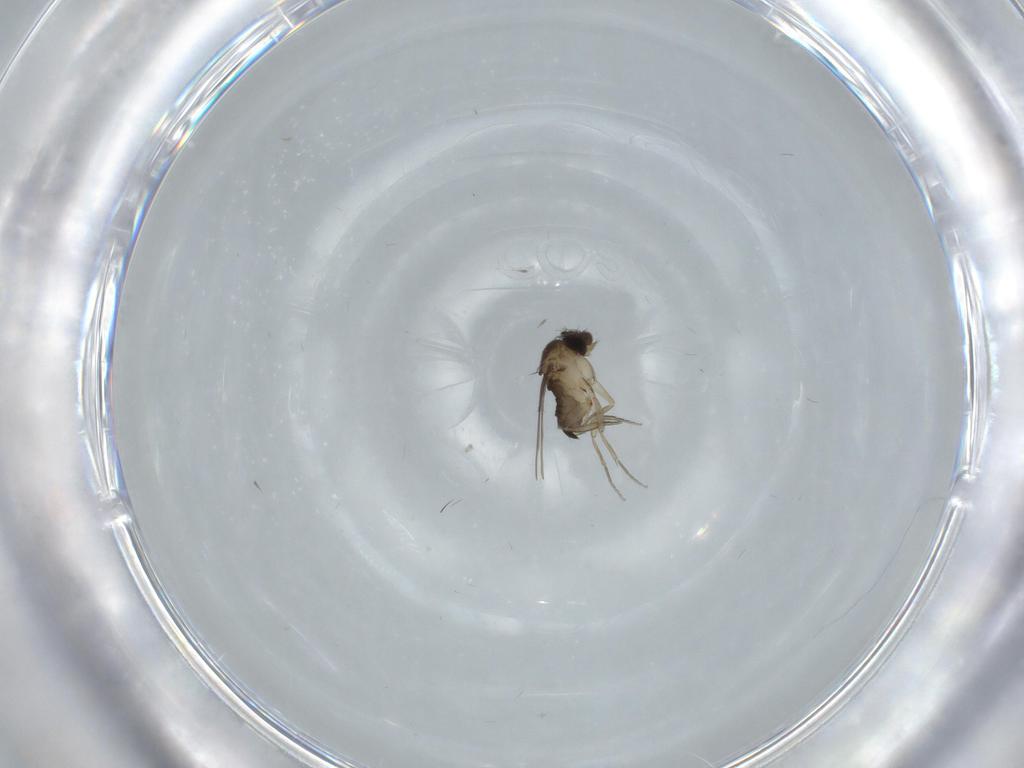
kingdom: Animalia
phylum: Arthropoda
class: Insecta
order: Diptera
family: Phoridae
